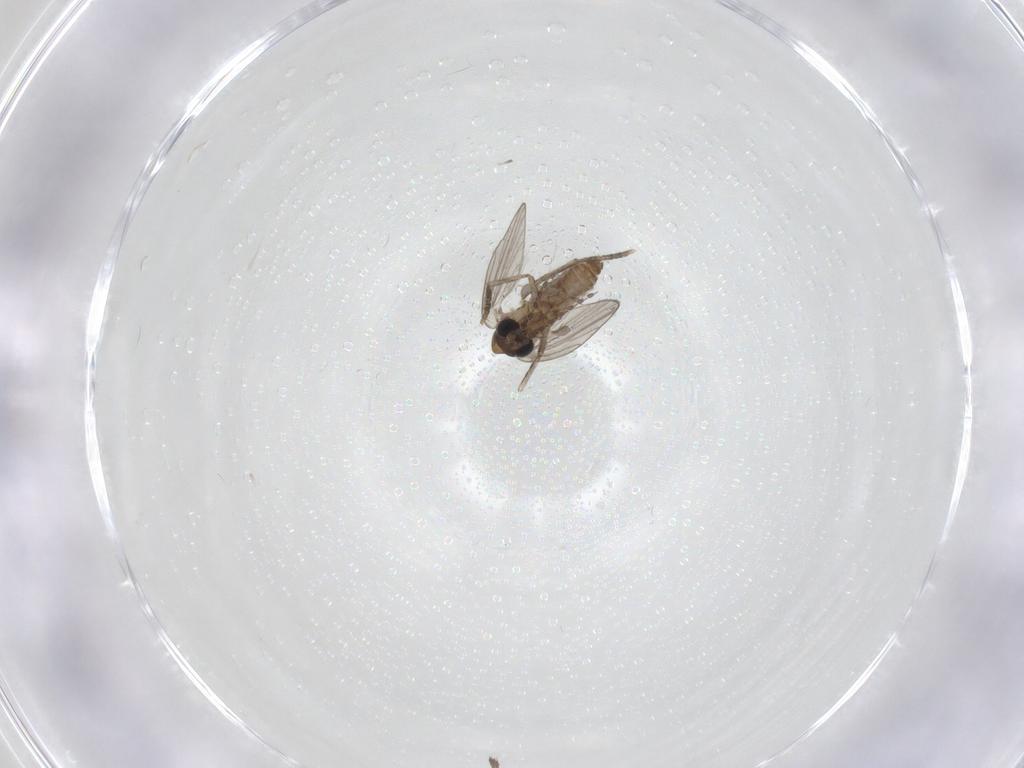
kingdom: Animalia
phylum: Arthropoda
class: Insecta
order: Diptera
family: Psychodidae
